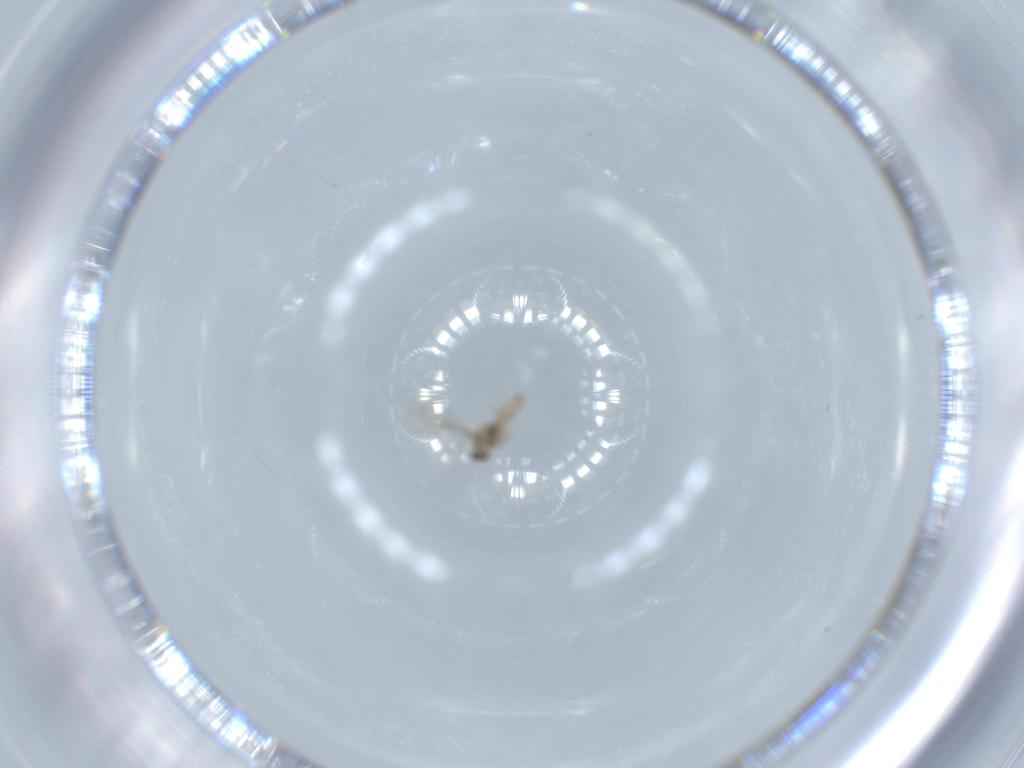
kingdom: Animalia
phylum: Arthropoda
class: Insecta
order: Diptera
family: Cecidomyiidae
